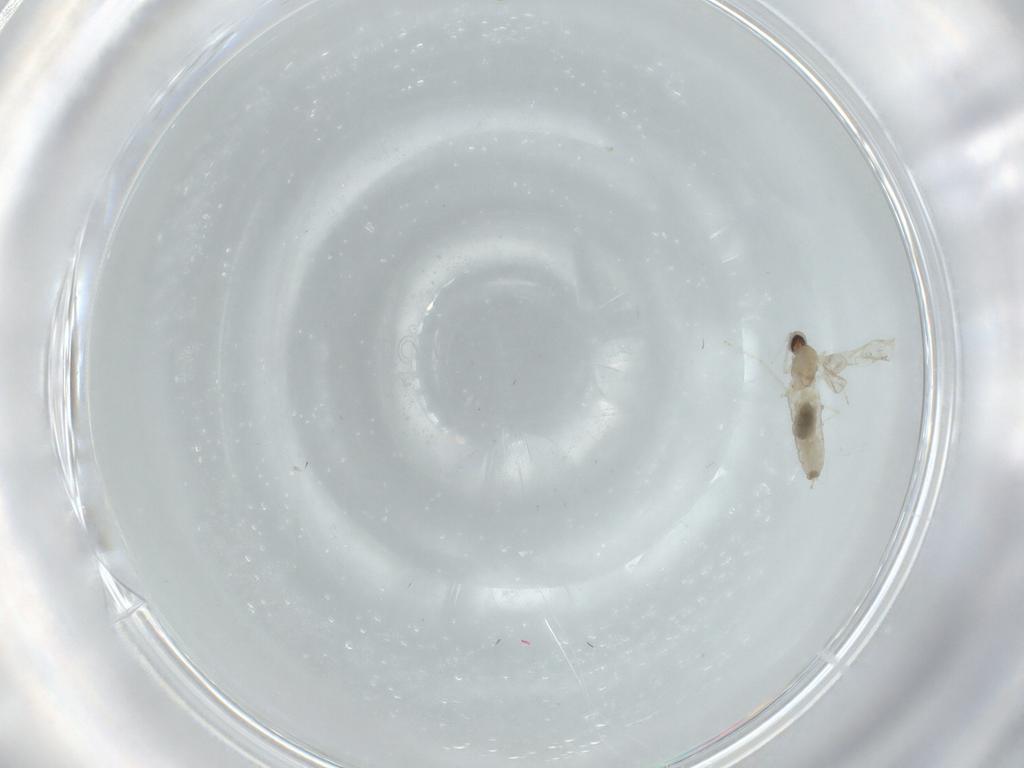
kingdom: Animalia
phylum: Arthropoda
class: Insecta
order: Diptera
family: Cecidomyiidae
